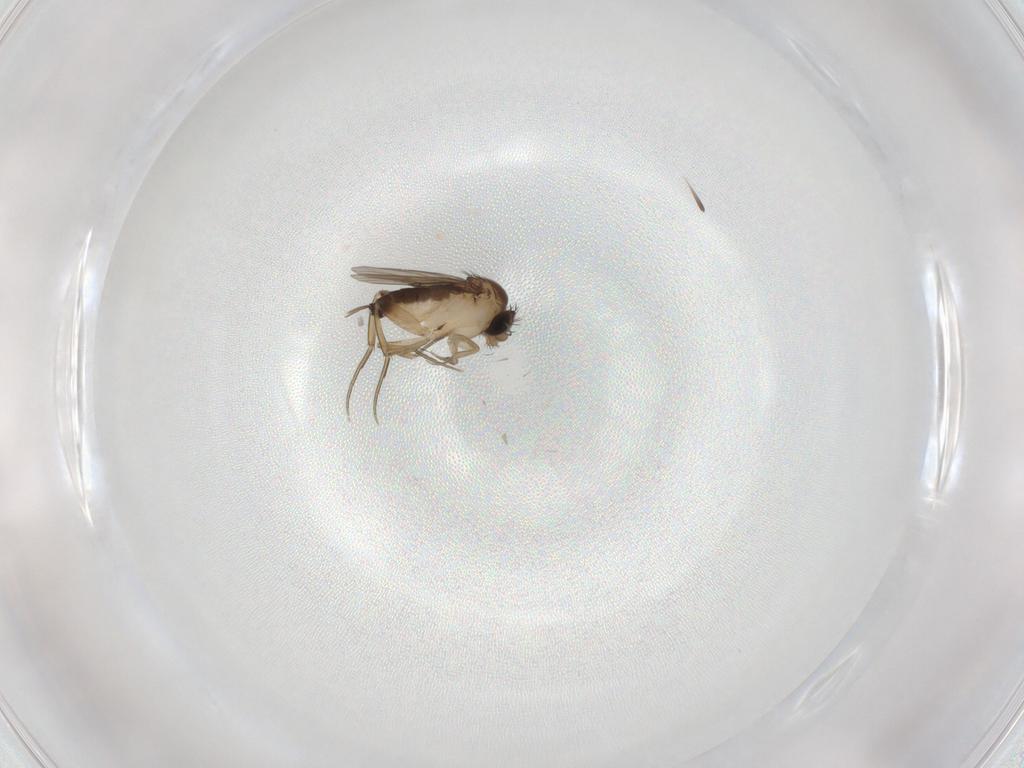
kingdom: Animalia
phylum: Arthropoda
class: Insecta
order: Diptera
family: Phoridae
